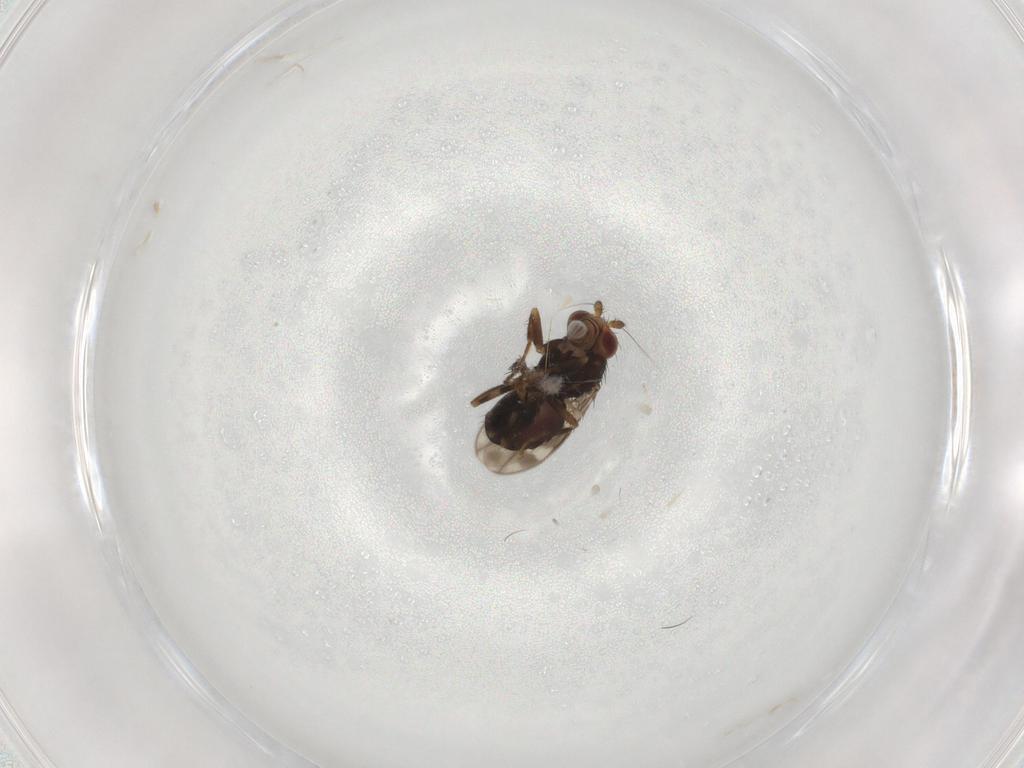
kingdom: Animalia
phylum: Arthropoda
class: Insecta
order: Diptera
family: Sphaeroceridae
